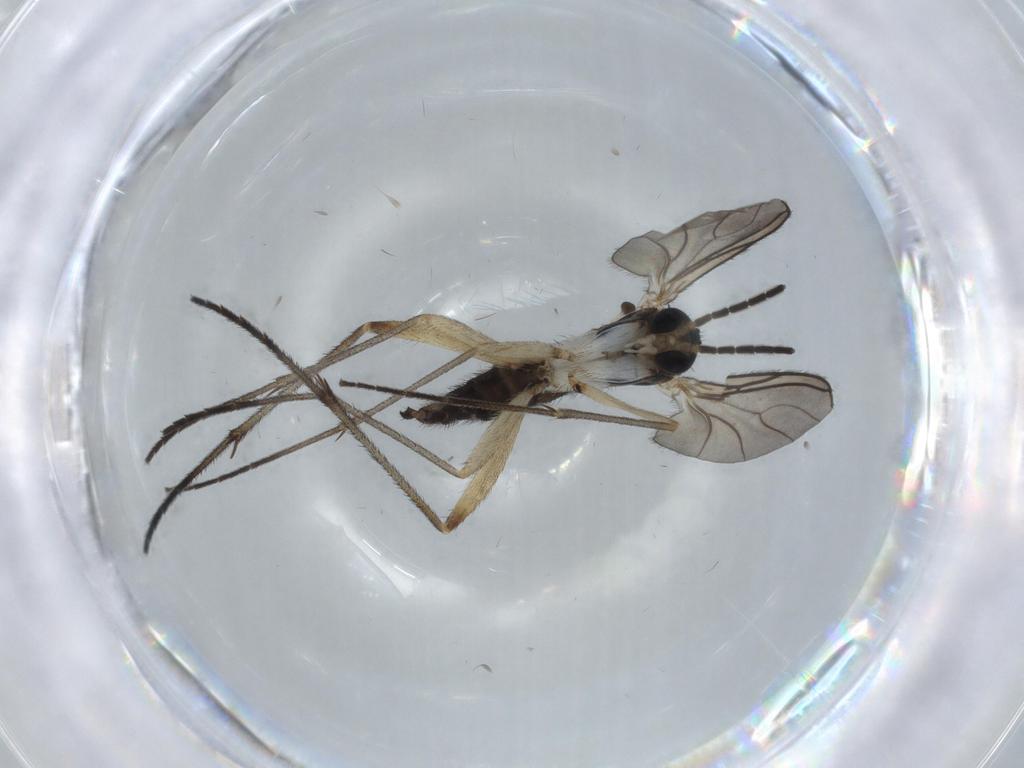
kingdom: Animalia
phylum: Arthropoda
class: Insecta
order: Diptera
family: Sciaridae
